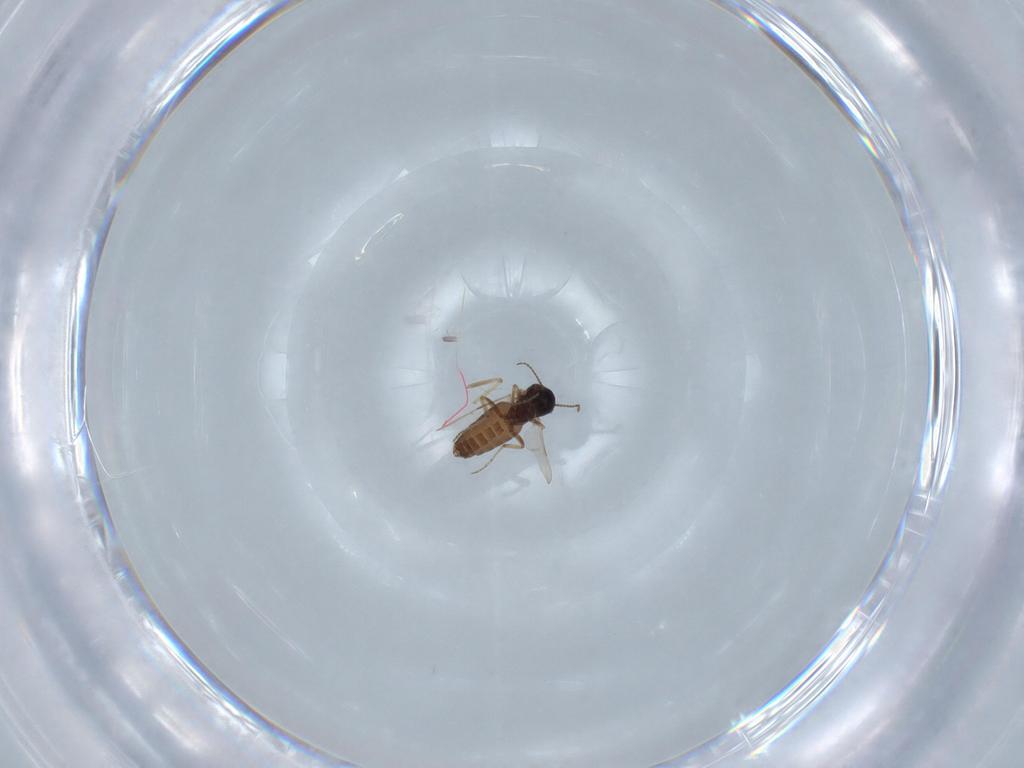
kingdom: Animalia
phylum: Arthropoda
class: Insecta
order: Diptera
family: Ceratopogonidae
